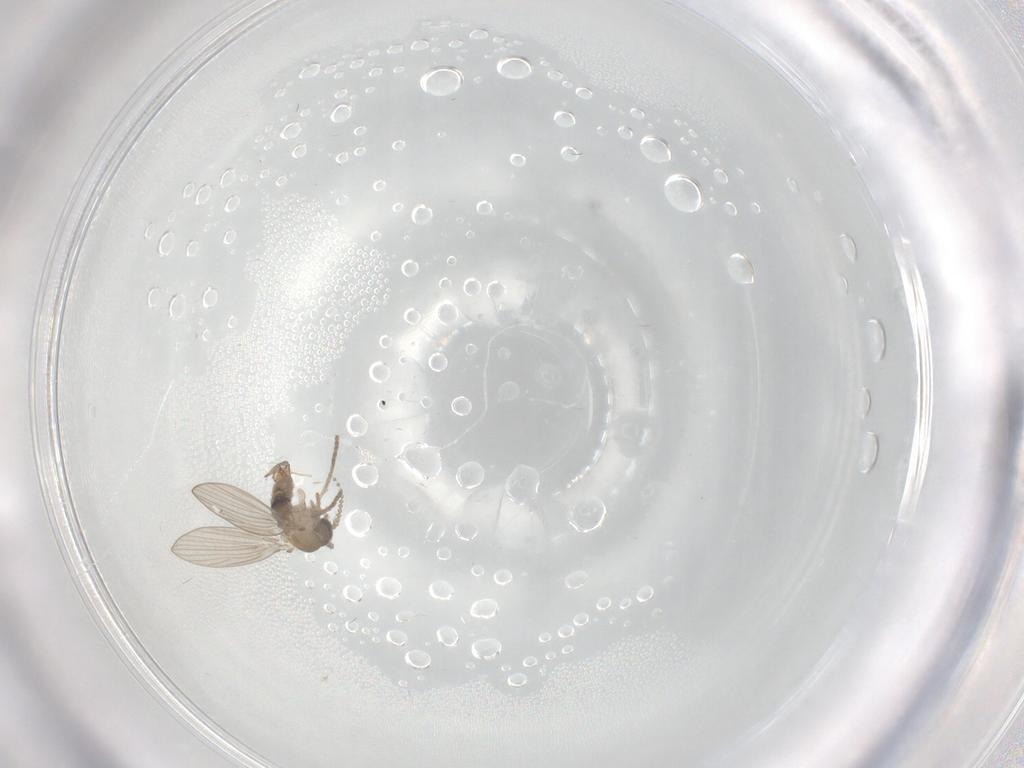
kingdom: Animalia
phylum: Arthropoda
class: Insecta
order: Diptera
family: Psychodidae
